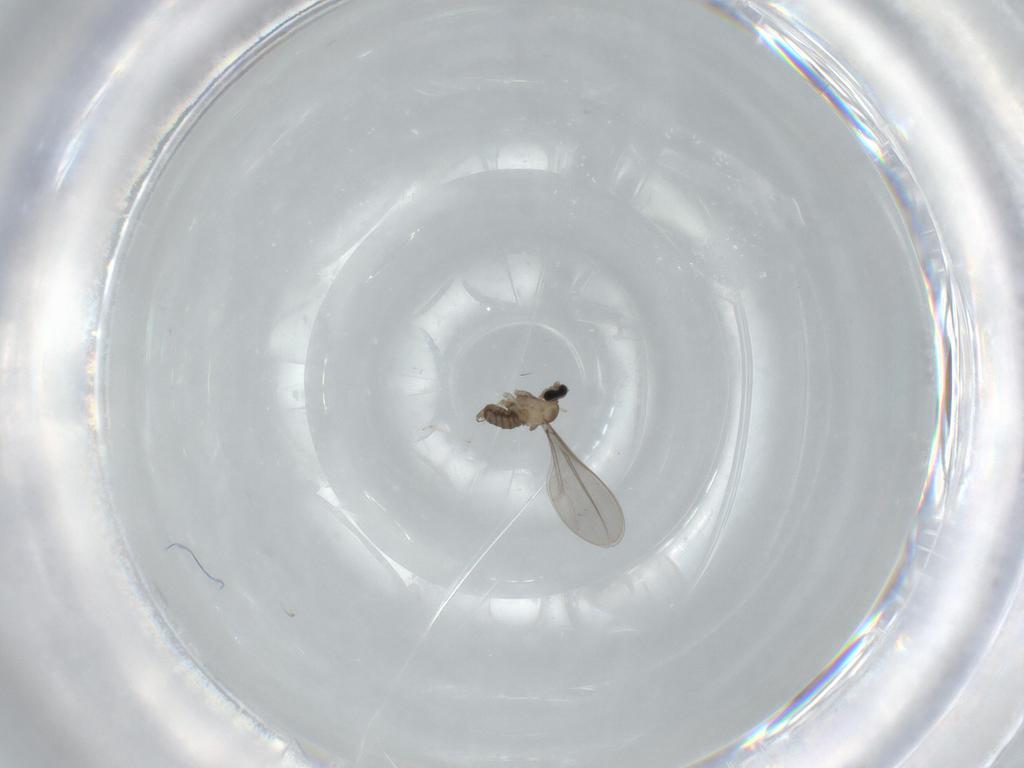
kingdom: Animalia
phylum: Arthropoda
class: Insecta
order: Diptera
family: Cecidomyiidae
